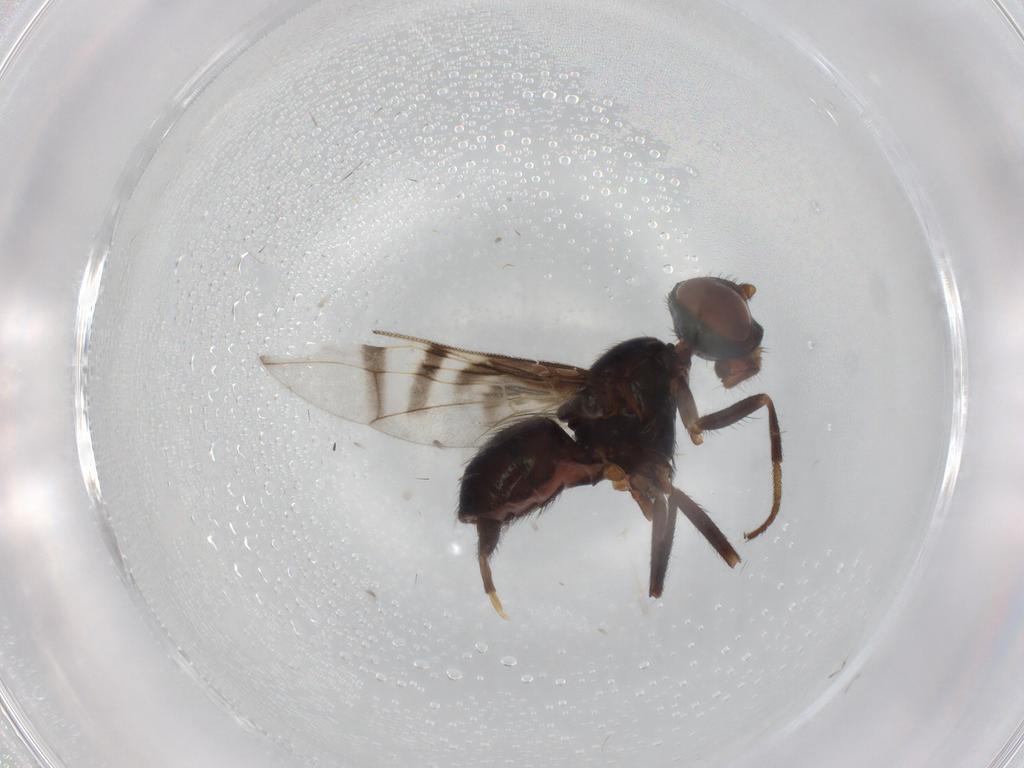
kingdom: Animalia
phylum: Arthropoda
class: Insecta
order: Diptera
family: Platystomatidae
